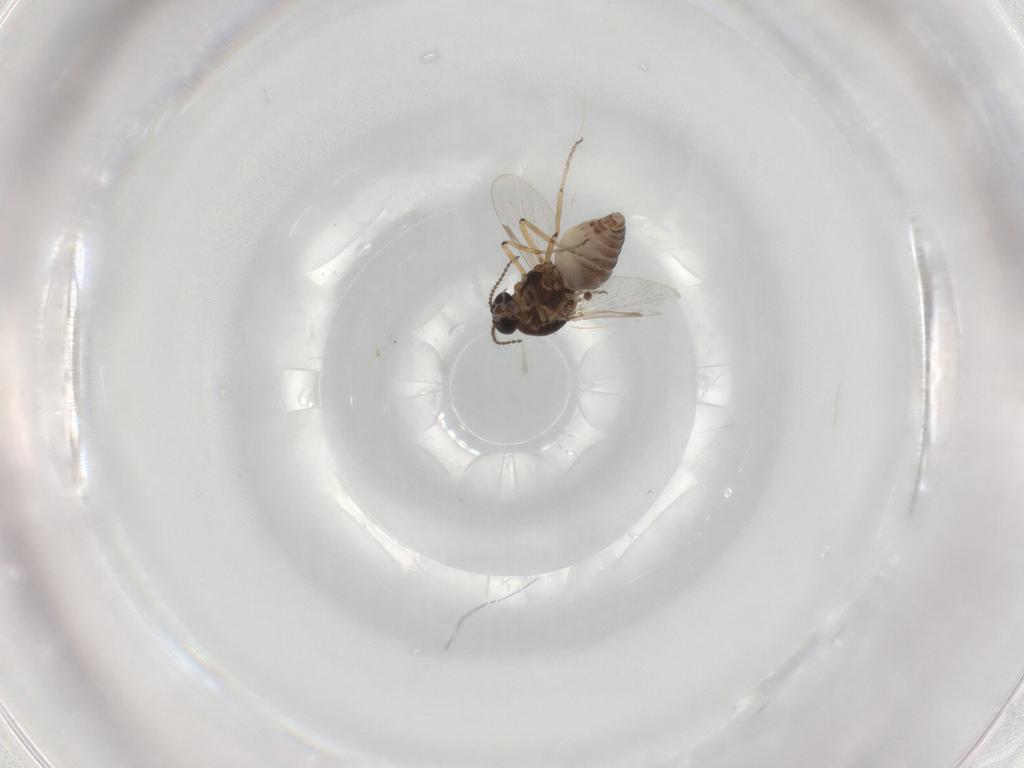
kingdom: Animalia
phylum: Arthropoda
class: Insecta
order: Diptera
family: Ceratopogonidae
